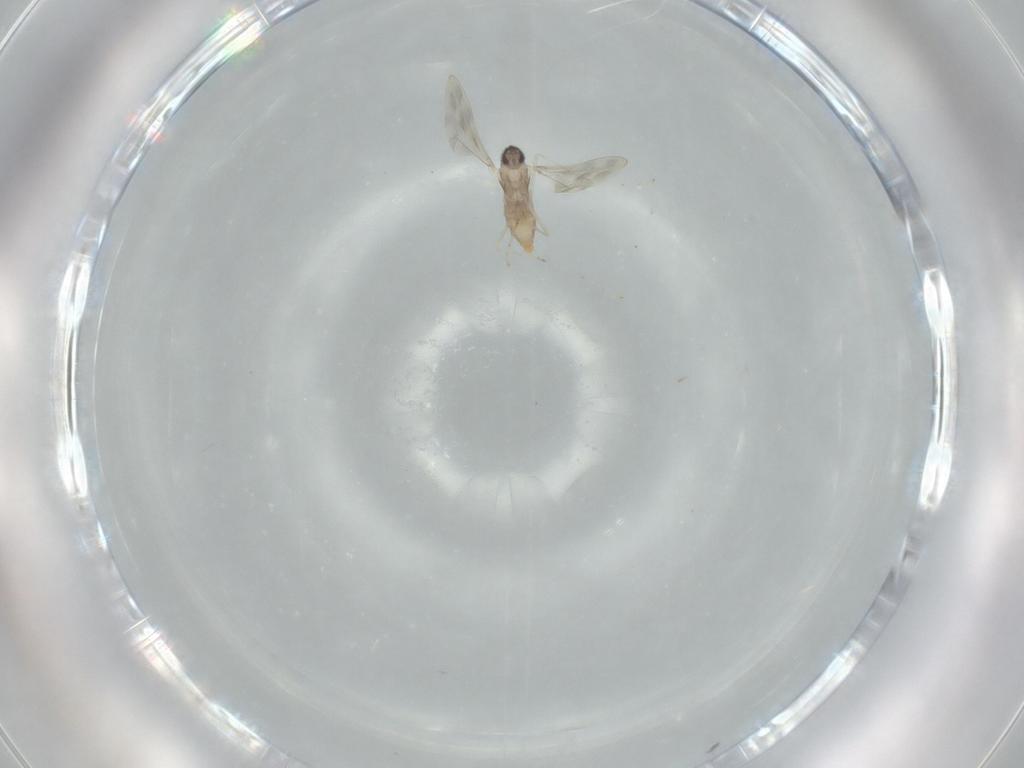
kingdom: Animalia
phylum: Arthropoda
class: Insecta
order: Diptera
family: Cecidomyiidae
